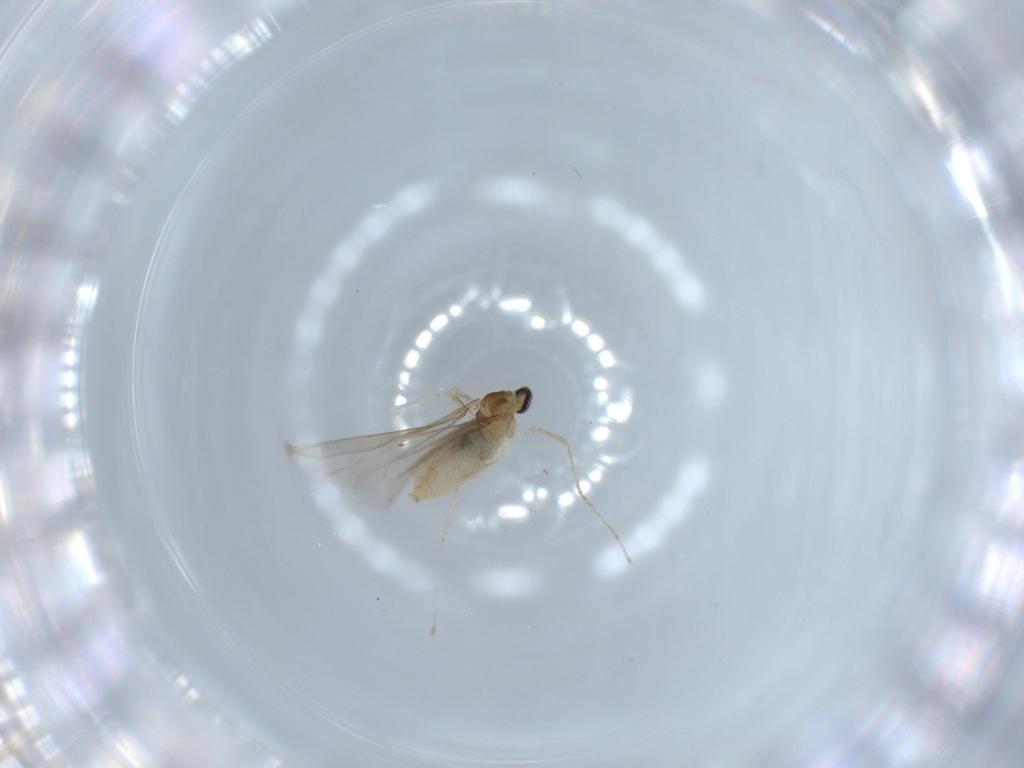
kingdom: Animalia
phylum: Arthropoda
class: Insecta
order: Diptera
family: Cecidomyiidae
